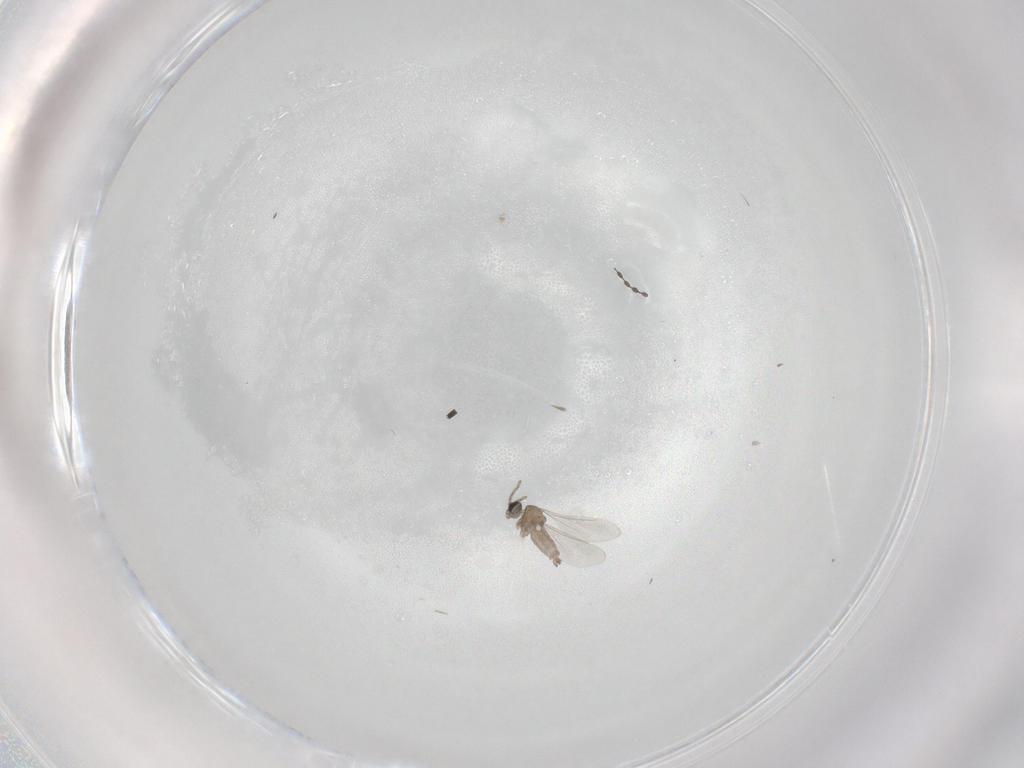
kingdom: Animalia
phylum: Arthropoda
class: Insecta
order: Diptera
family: Cecidomyiidae
